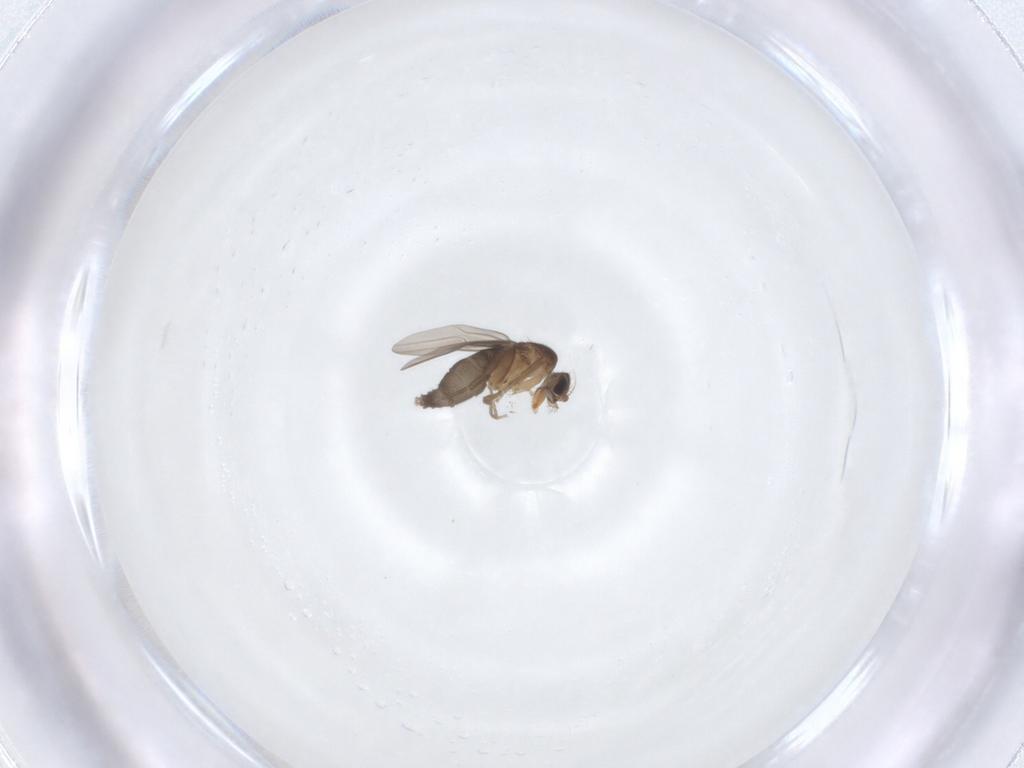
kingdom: Animalia
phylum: Arthropoda
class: Insecta
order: Diptera
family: Phoridae
